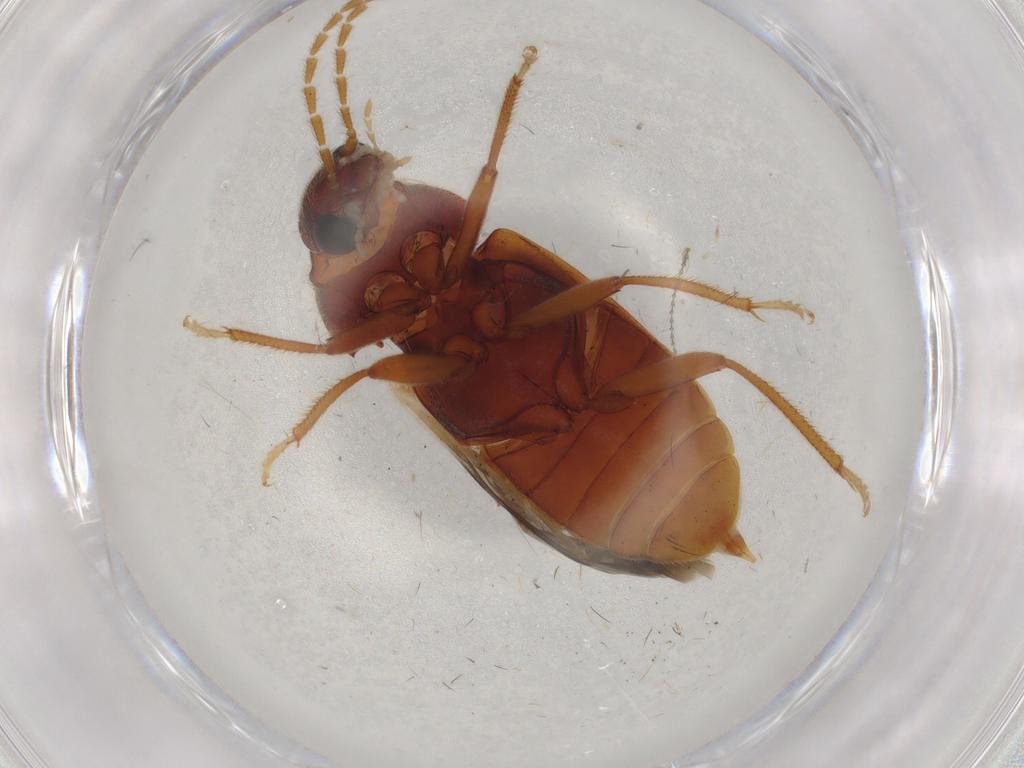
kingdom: Animalia
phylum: Arthropoda
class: Insecta
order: Coleoptera
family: Ptilodactylidae
